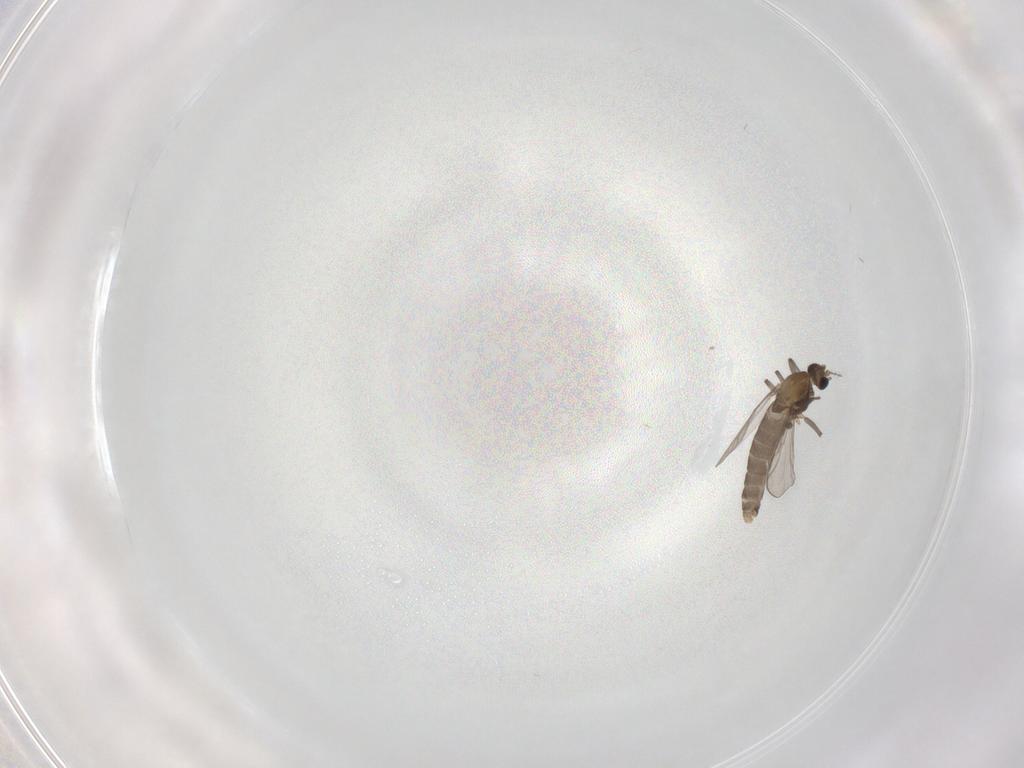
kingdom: Animalia
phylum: Arthropoda
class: Insecta
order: Diptera
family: Chironomidae
